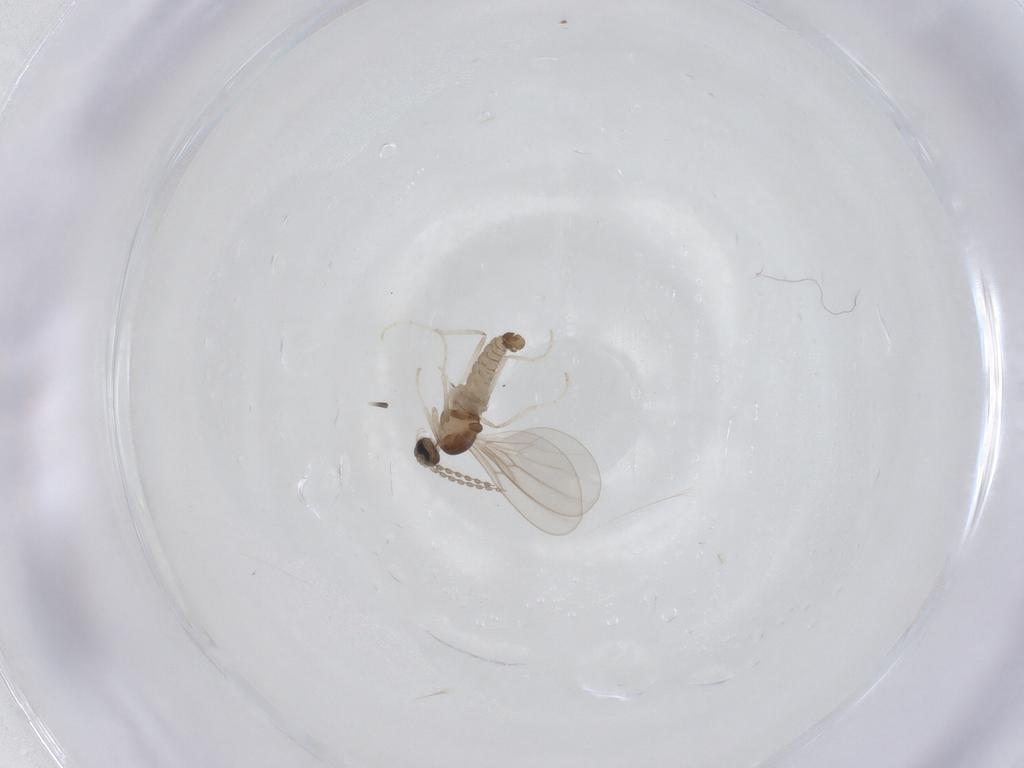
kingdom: Animalia
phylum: Arthropoda
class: Insecta
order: Diptera
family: Cecidomyiidae
